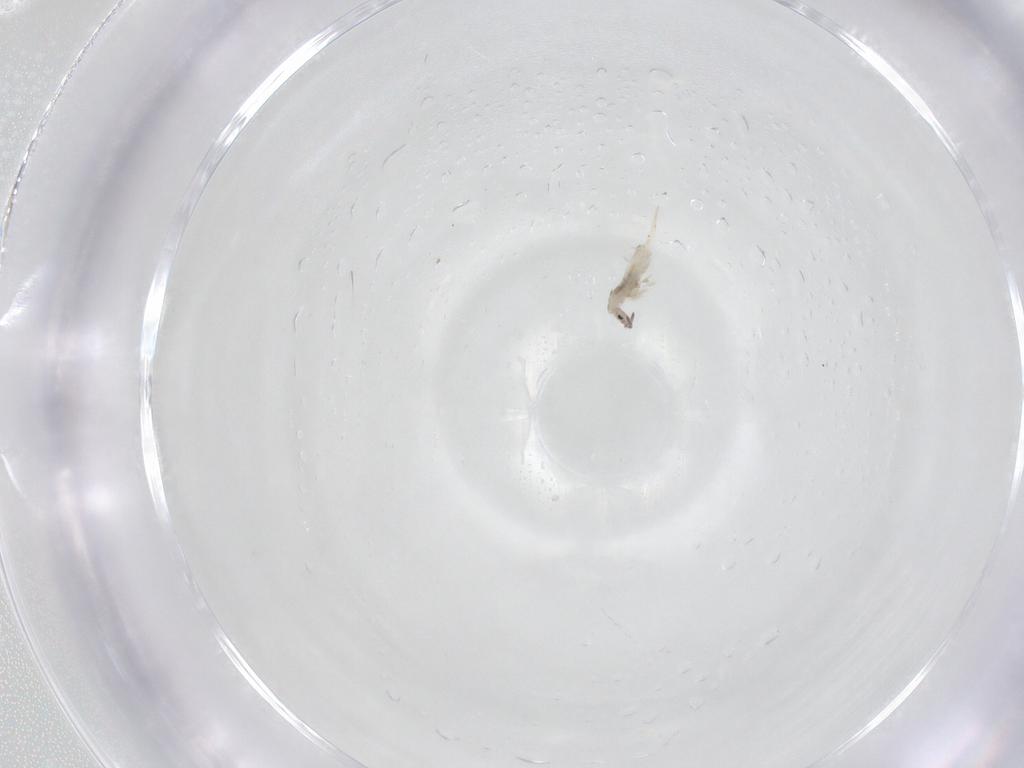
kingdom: Animalia
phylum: Arthropoda
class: Collembola
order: Entomobryomorpha
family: Entomobryidae
